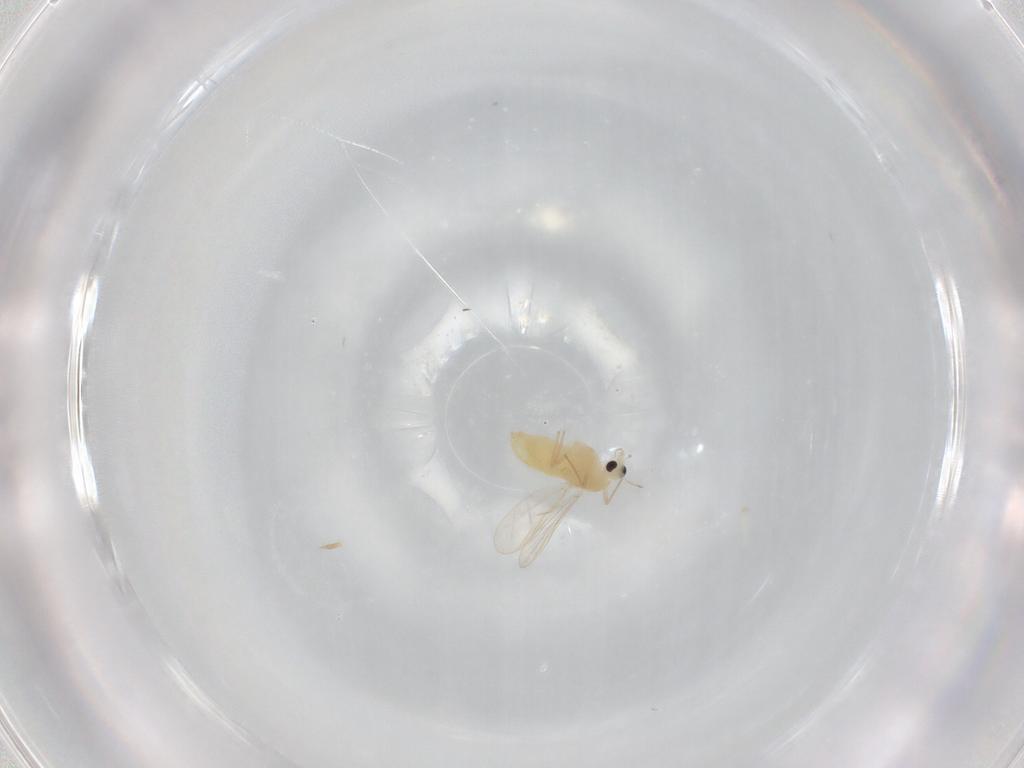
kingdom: Animalia
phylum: Arthropoda
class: Insecta
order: Diptera
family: Chironomidae
